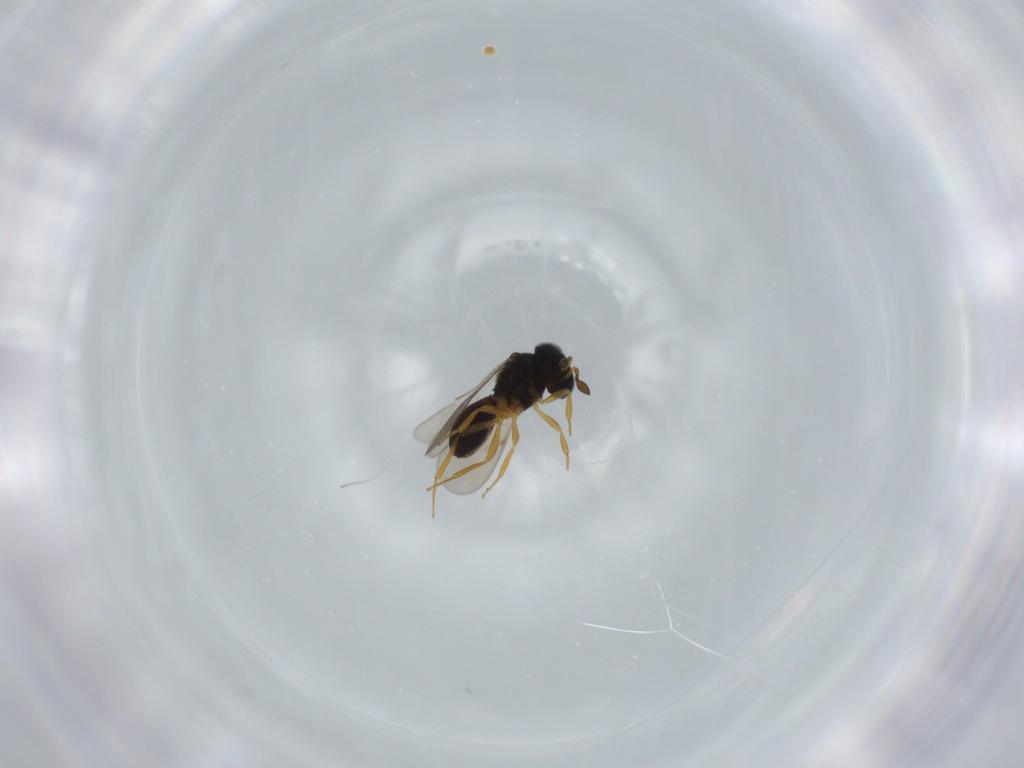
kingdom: Animalia
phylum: Arthropoda
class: Insecta
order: Hymenoptera
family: Scelionidae
